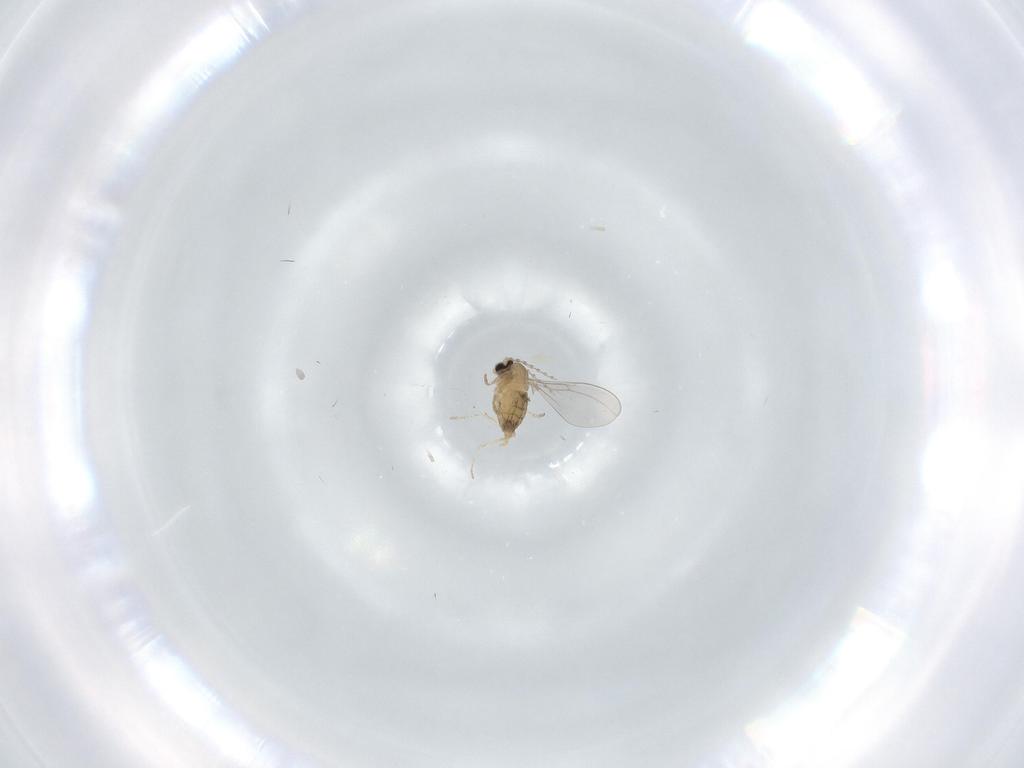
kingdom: Animalia
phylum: Arthropoda
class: Insecta
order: Diptera
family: Cecidomyiidae
